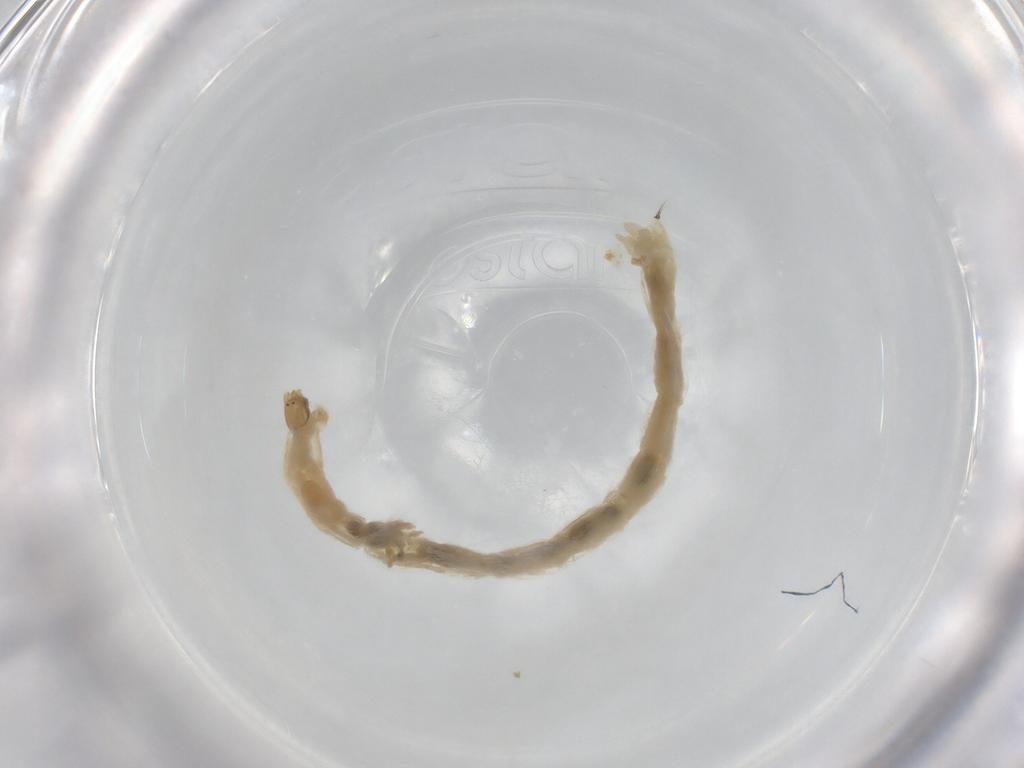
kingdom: Animalia
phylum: Arthropoda
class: Insecta
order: Diptera
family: Chironomidae
